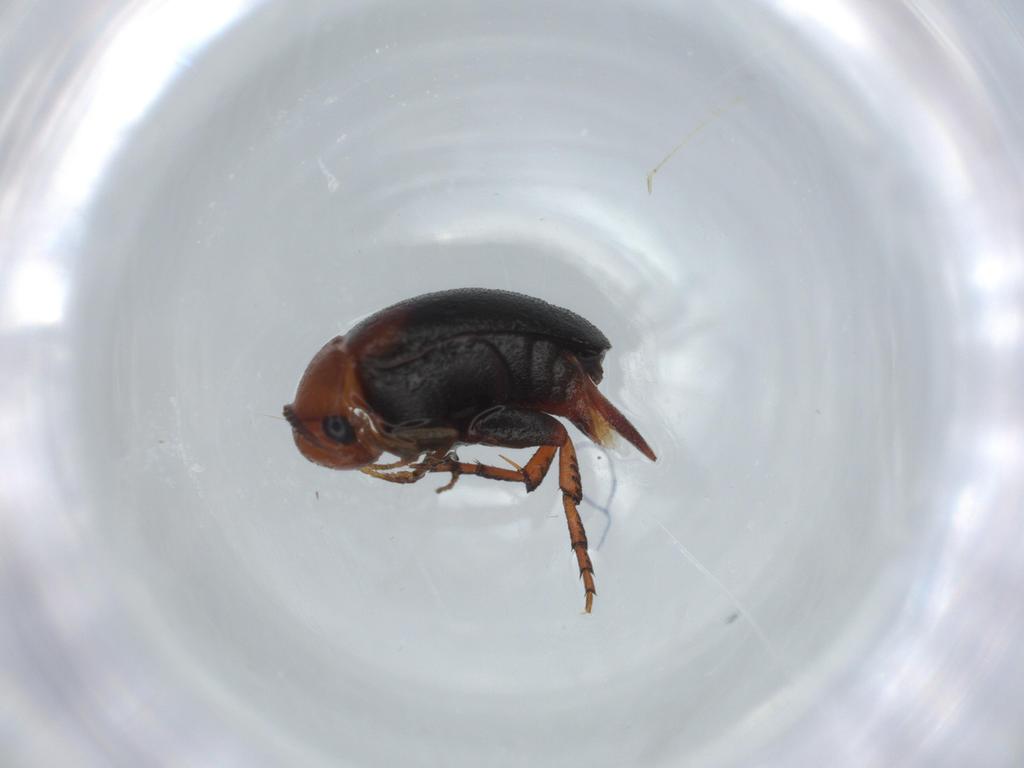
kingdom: Animalia
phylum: Arthropoda
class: Insecta
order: Coleoptera
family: Mordellidae
